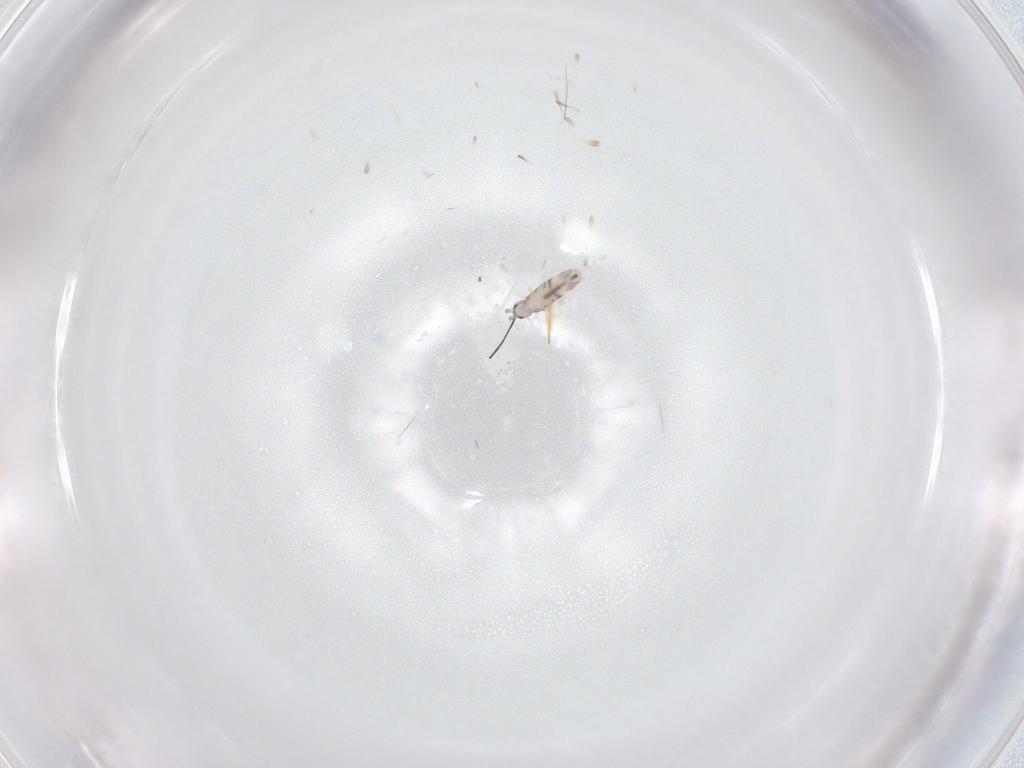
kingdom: Animalia
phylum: Arthropoda
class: Collembola
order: Entomobryomorpha
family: Entomobryidae
